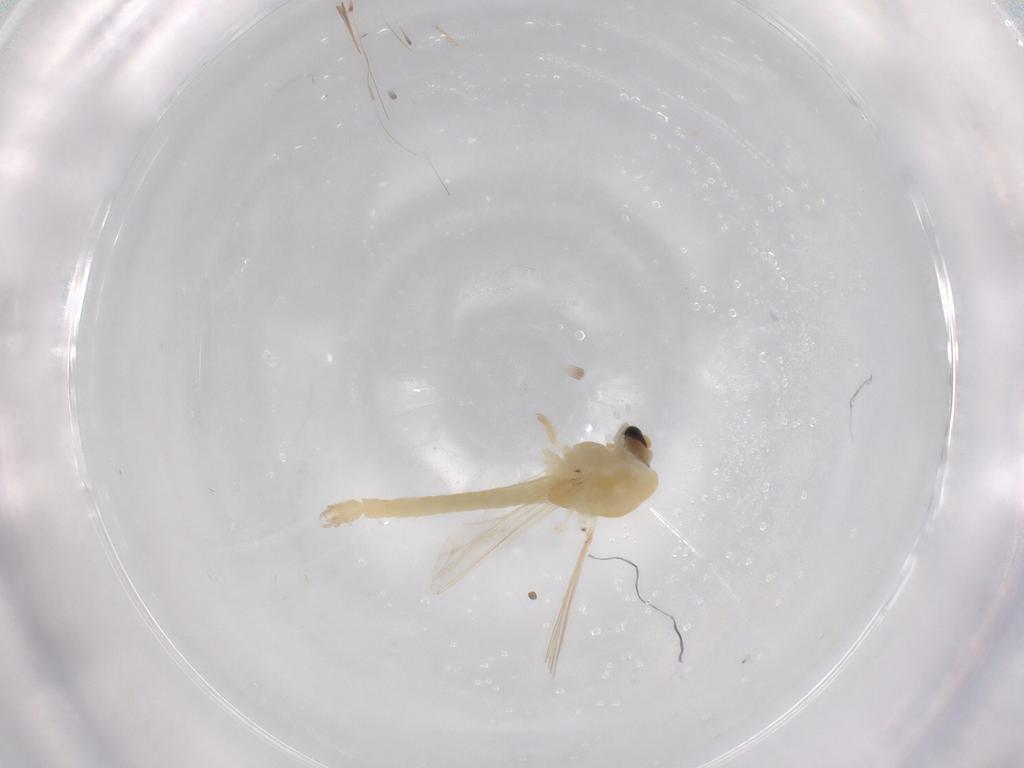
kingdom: Animalia
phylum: Arthropoda
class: Insecta
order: Diptera
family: Chironomidae
